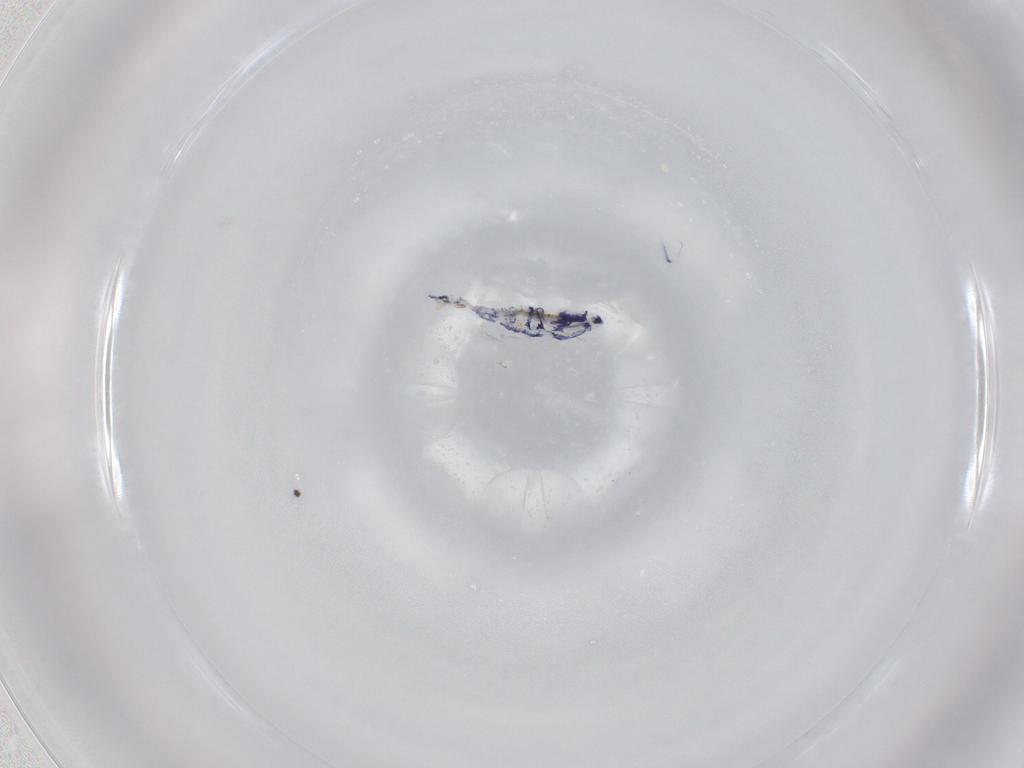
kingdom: Animalia
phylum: Arthropoda
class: Collembola
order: Entomobryomorpha
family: Entomobryidae
